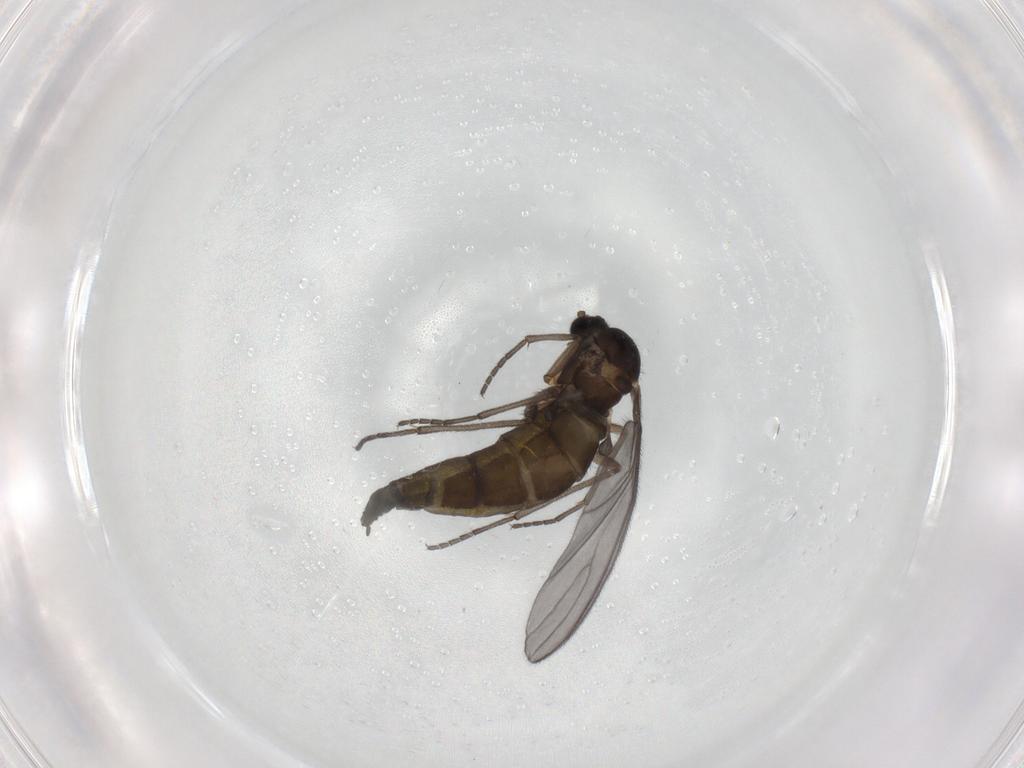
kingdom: Animalia
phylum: Arthropoda
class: Insecta
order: Diptera
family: Sciaridae
